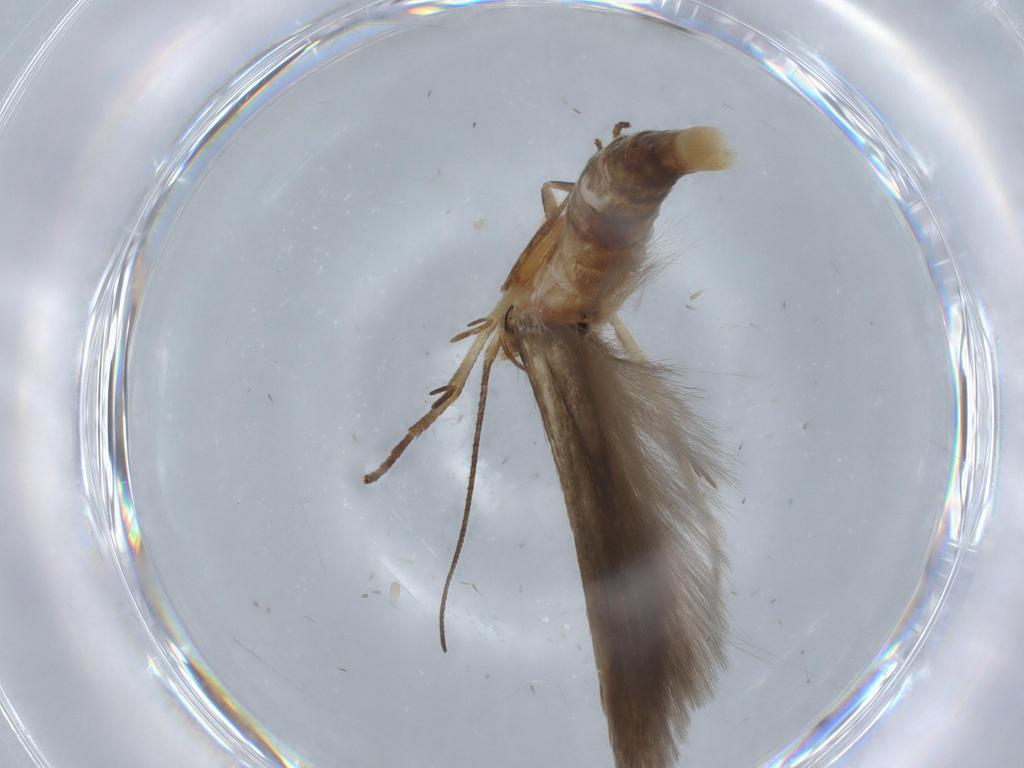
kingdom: Animalia
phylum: Arthropoda
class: Insecta
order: Lepidoptera
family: Stathmopodidae
